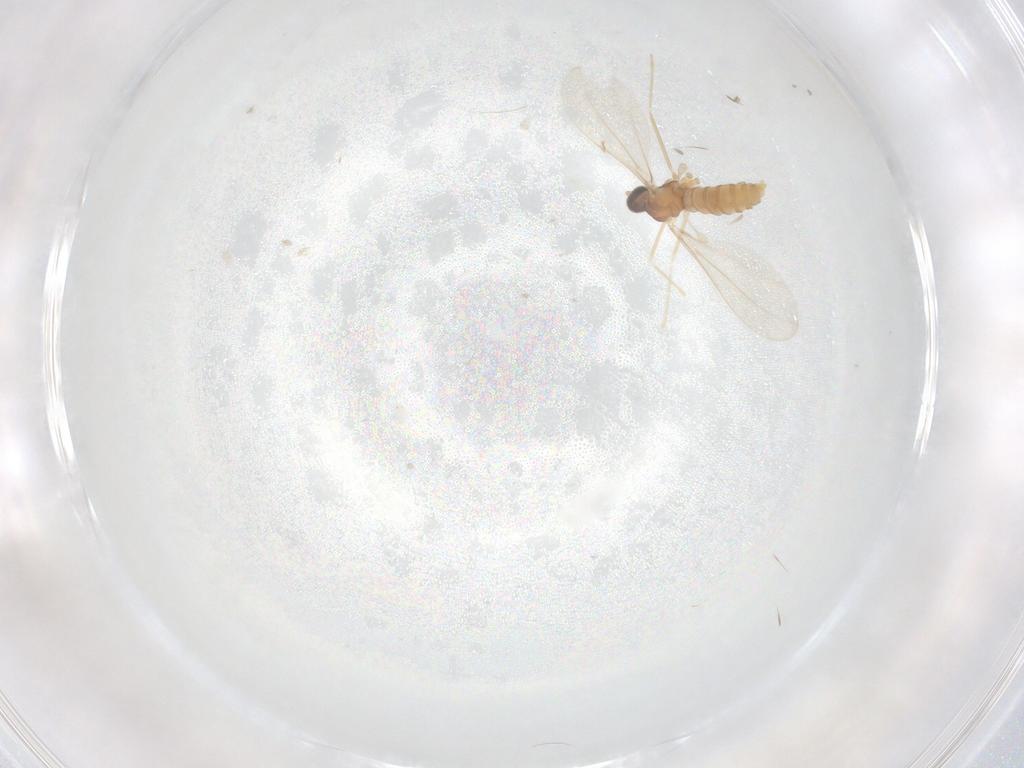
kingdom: Animalia
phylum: Arthropoda
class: Insecta
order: Diptera
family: Cecidomyiidae
